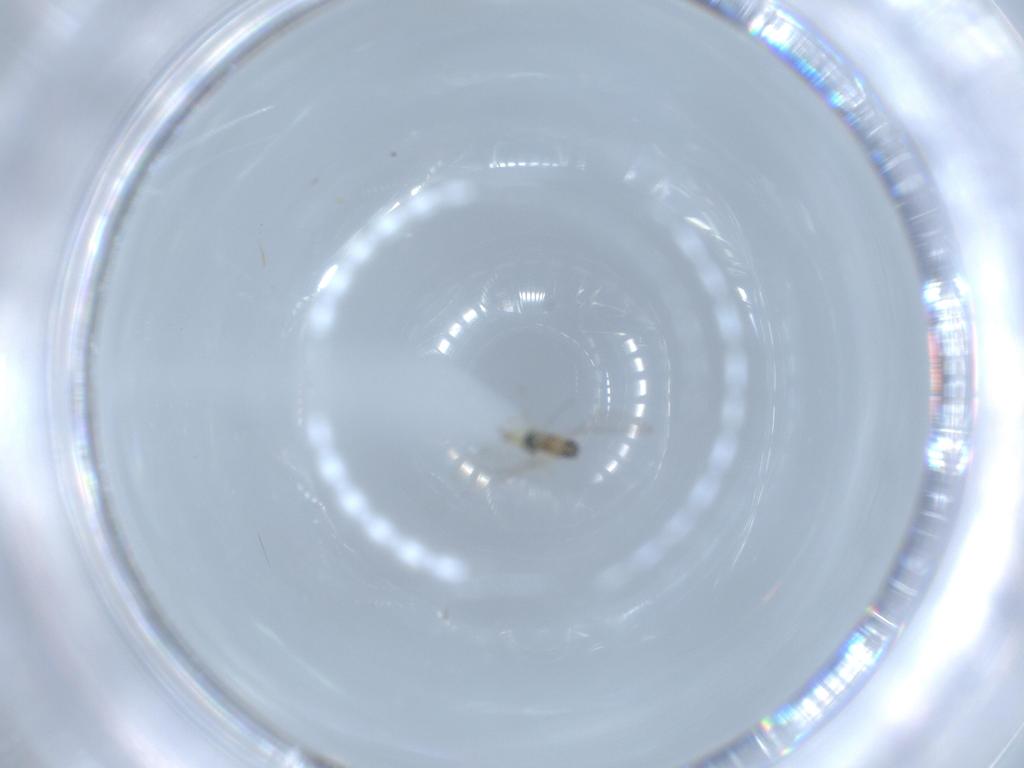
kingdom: Animalia
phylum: Arthropoda
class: Insecta
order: Diptera
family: Cecidomyiidae
